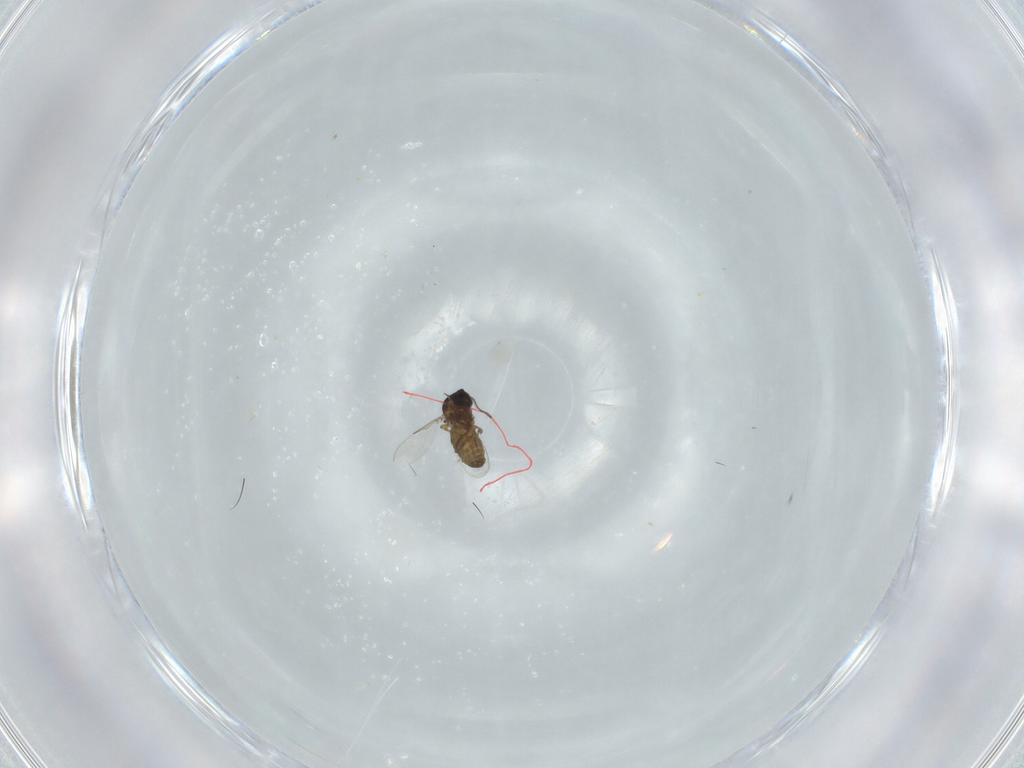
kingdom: Animalia
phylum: Arthropoda
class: Insecta
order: Diptera
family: Ceratopogonidae
